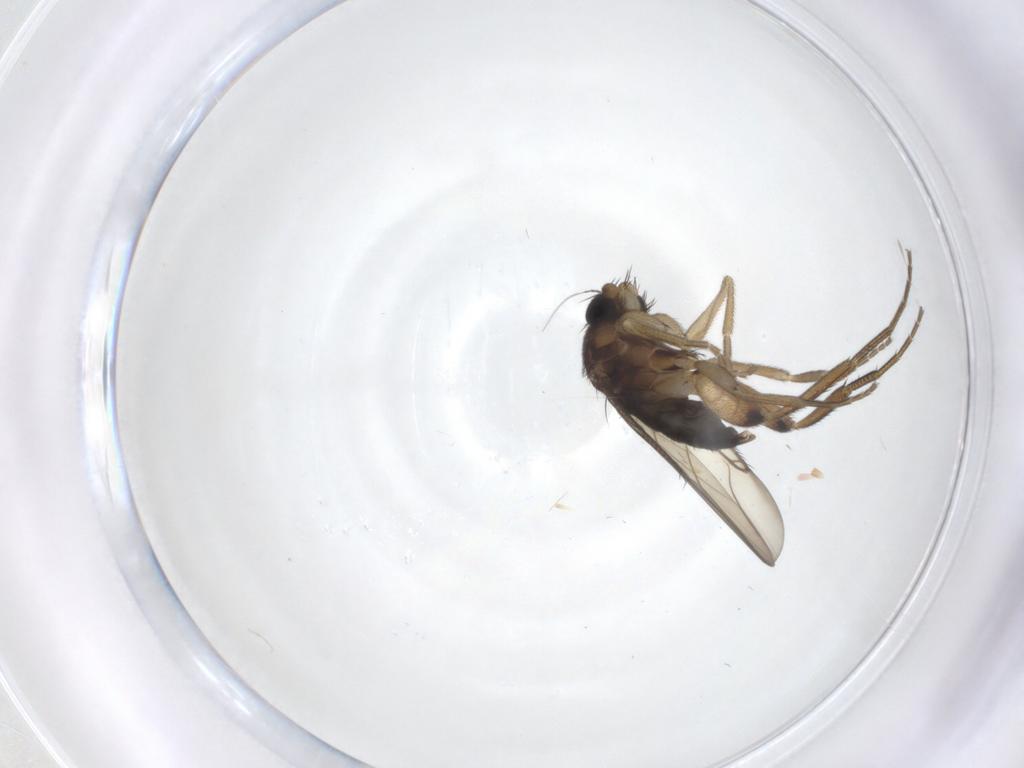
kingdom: Animalia
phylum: Arthropoda
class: Insecta
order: Diptera
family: Phoridae
